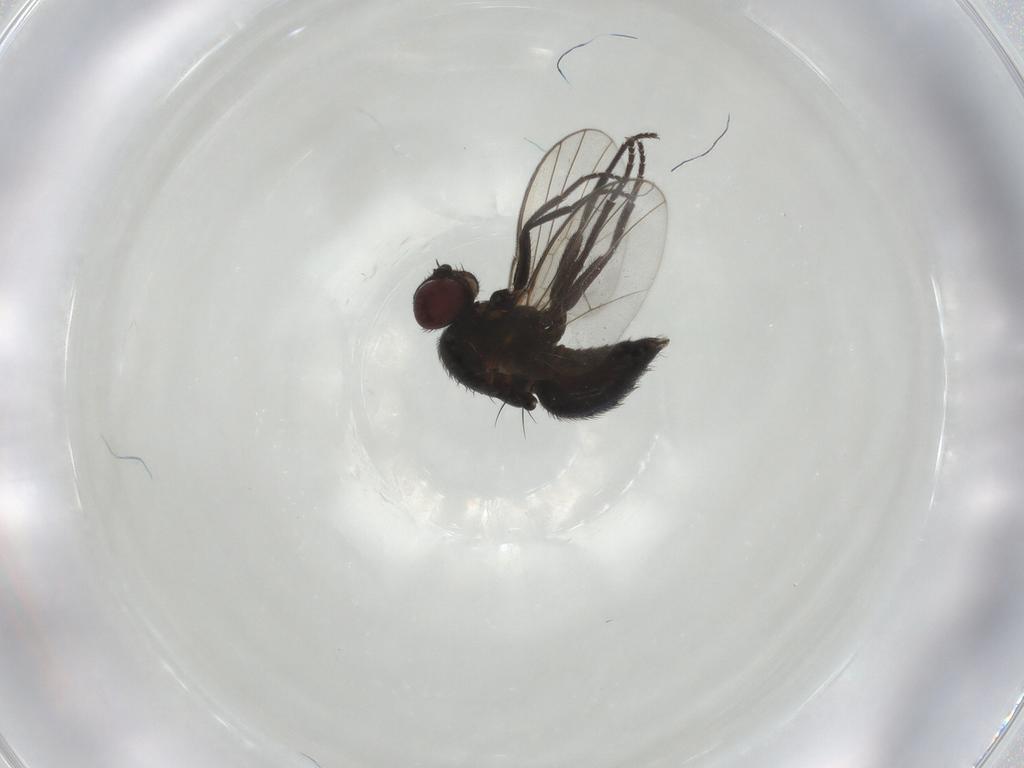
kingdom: Animalia
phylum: Arthropoda
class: Insecta
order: Diptera
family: Agromyzidae
